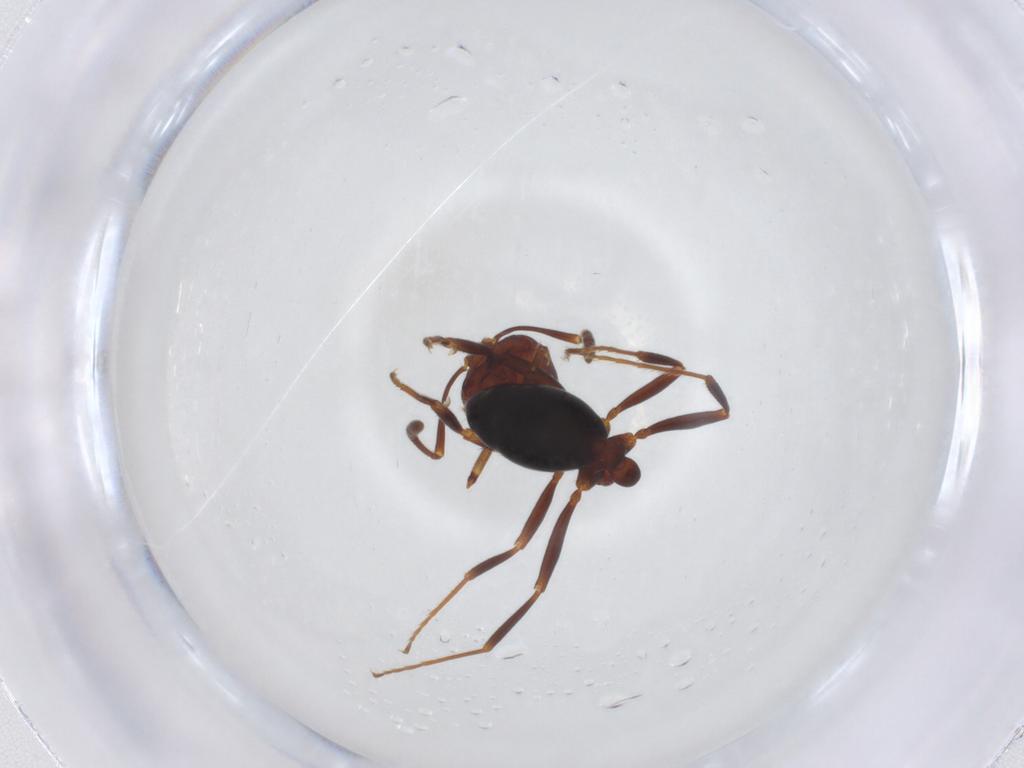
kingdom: Animalia
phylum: Arthropoda
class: Insecta
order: Hymenoptera
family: Formicidae
